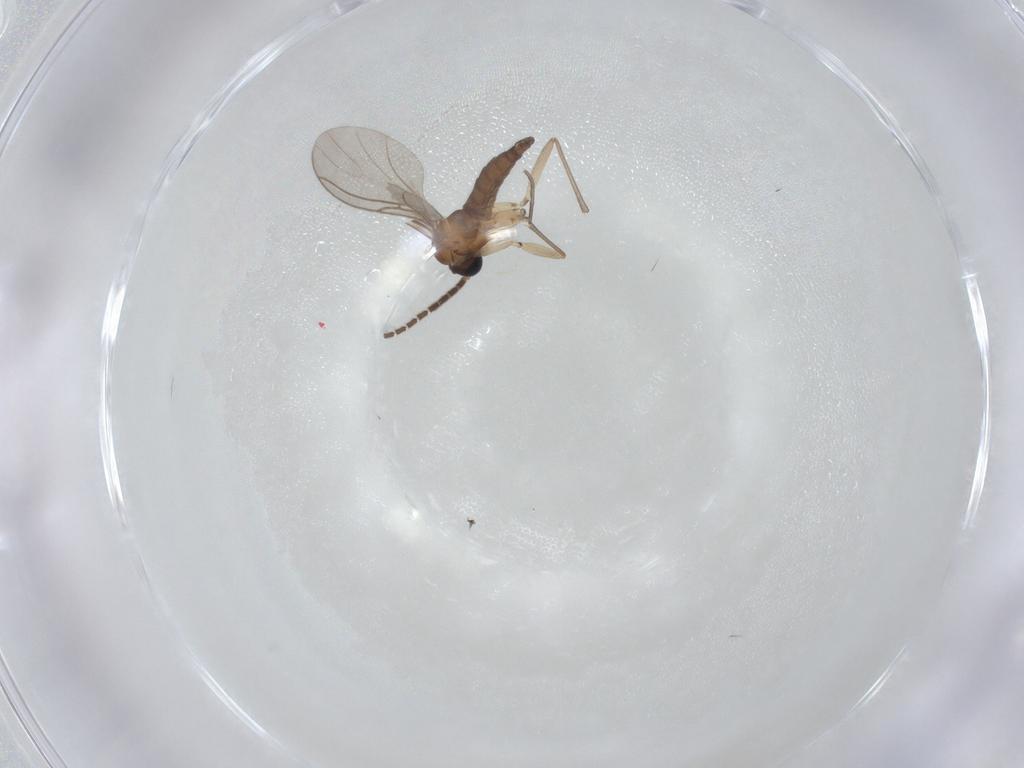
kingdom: Animalia
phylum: Arthropoda
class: Insecta
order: Diptera
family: Sciaridae
